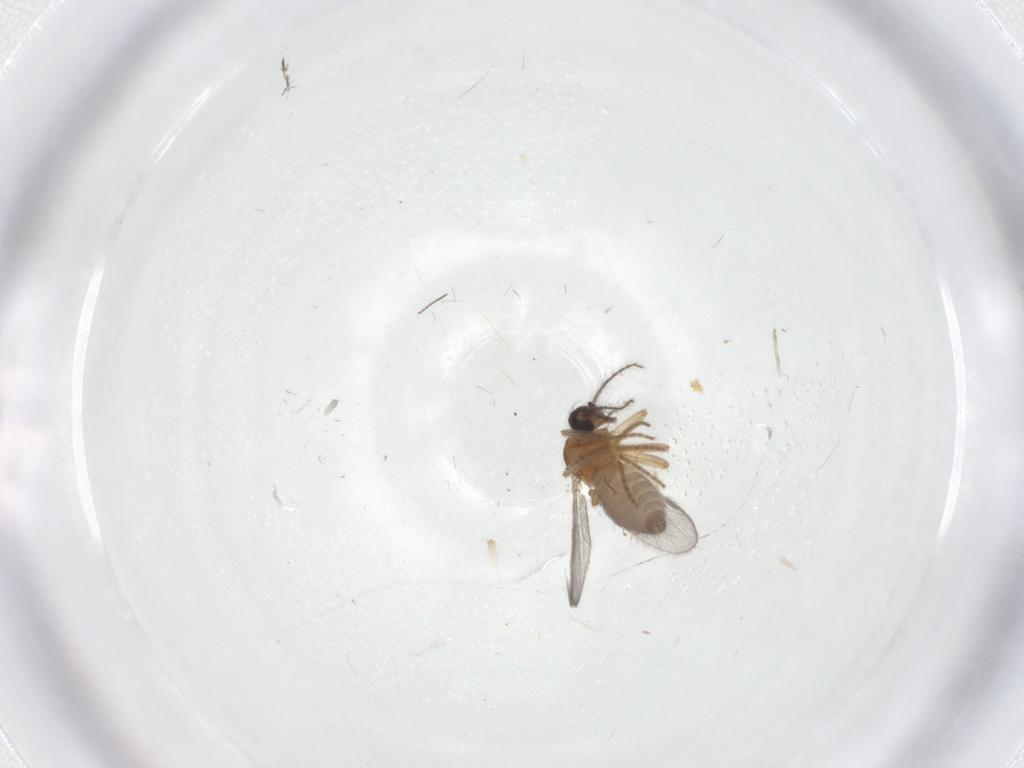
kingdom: Animalia
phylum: Arthropoda
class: Insecta
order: Diptera
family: Ceratopogonidae
